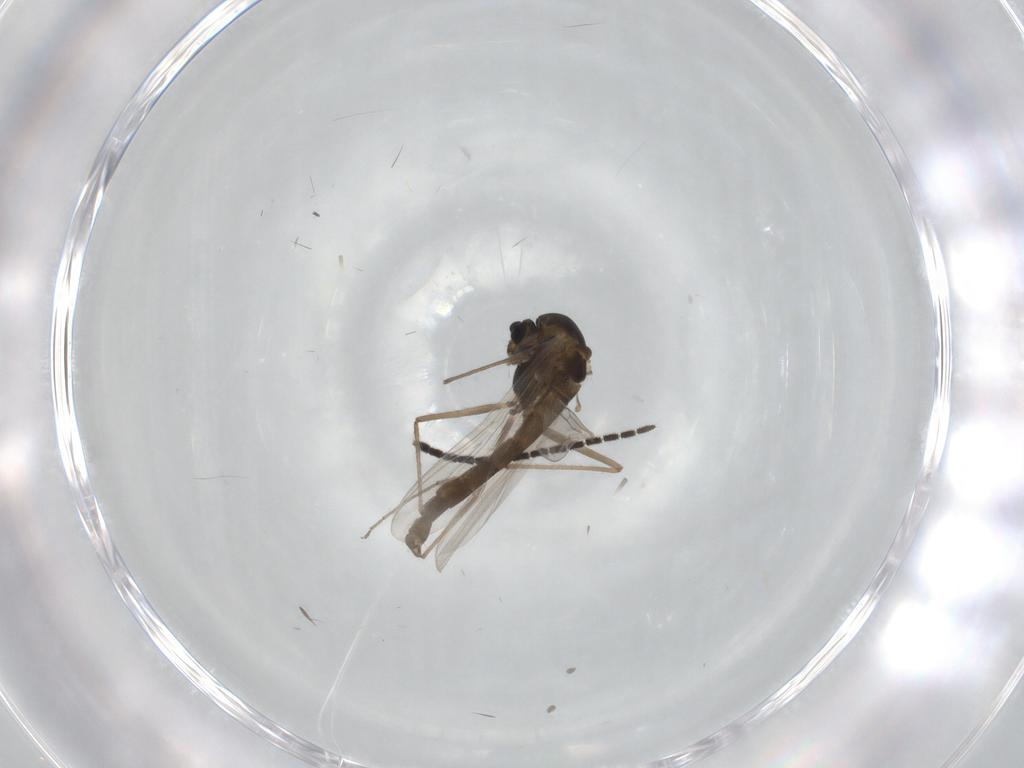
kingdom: Animalia
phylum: Arthropoda
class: Insecta
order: Diptera
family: Chironomidae
